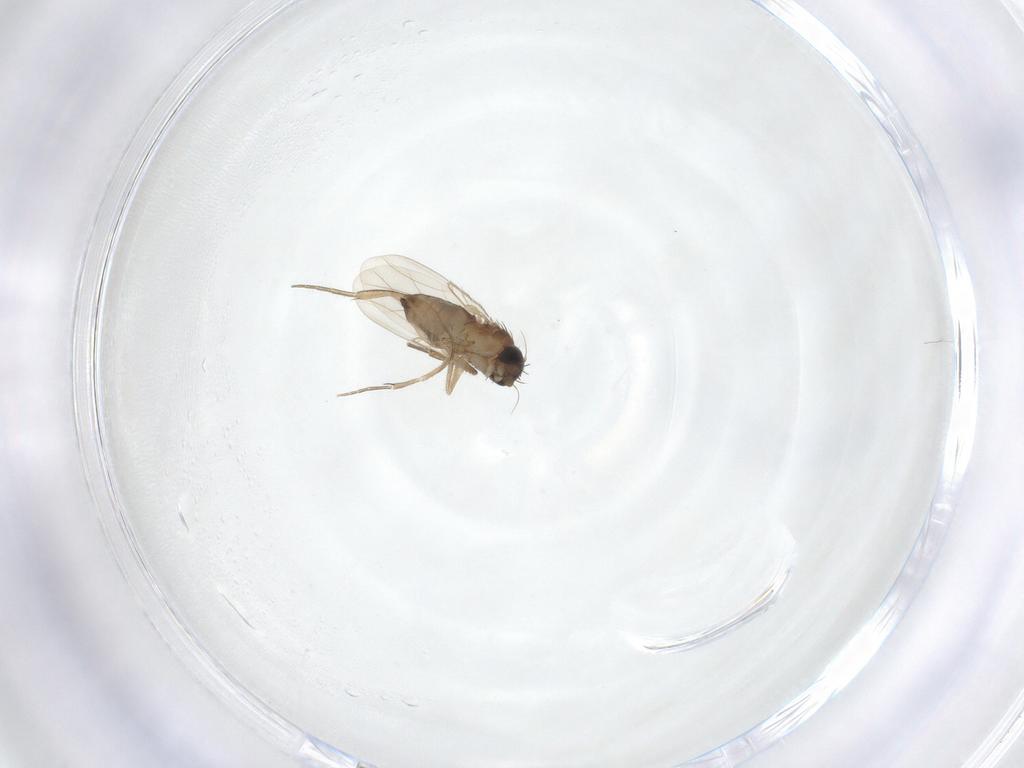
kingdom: Animalia
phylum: Arthropoda
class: Insecta
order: Diptera
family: Phoridae
